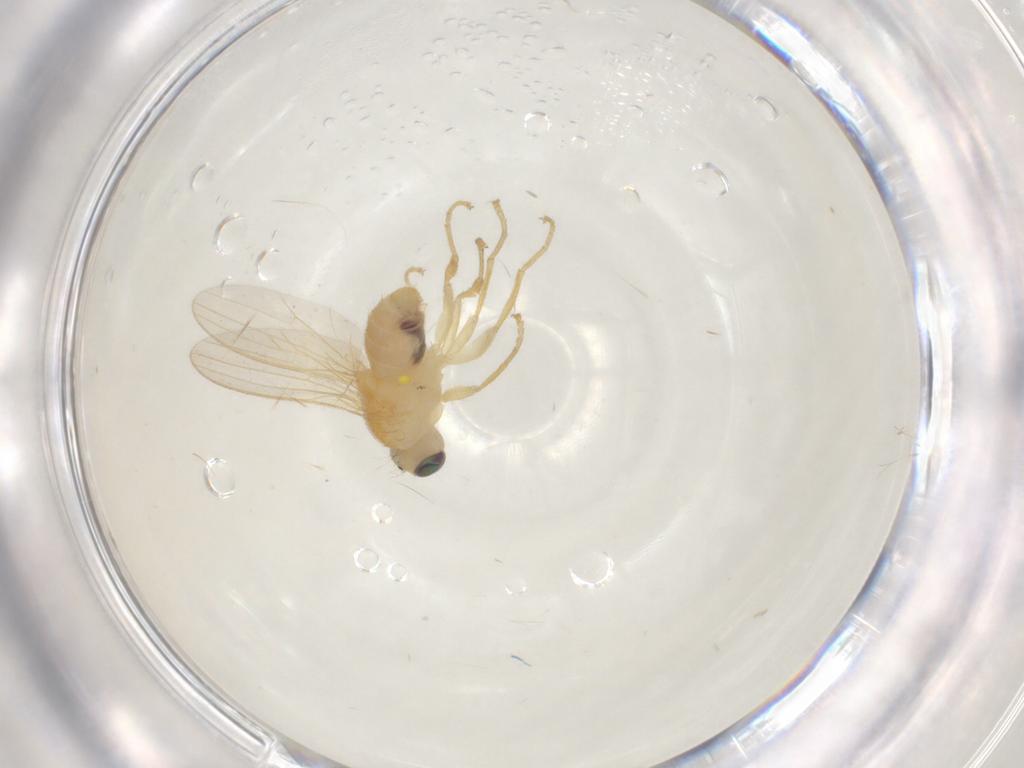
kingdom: Animalia
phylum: Arthropoda
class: Insecta
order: Diptera
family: Chyromyidae
